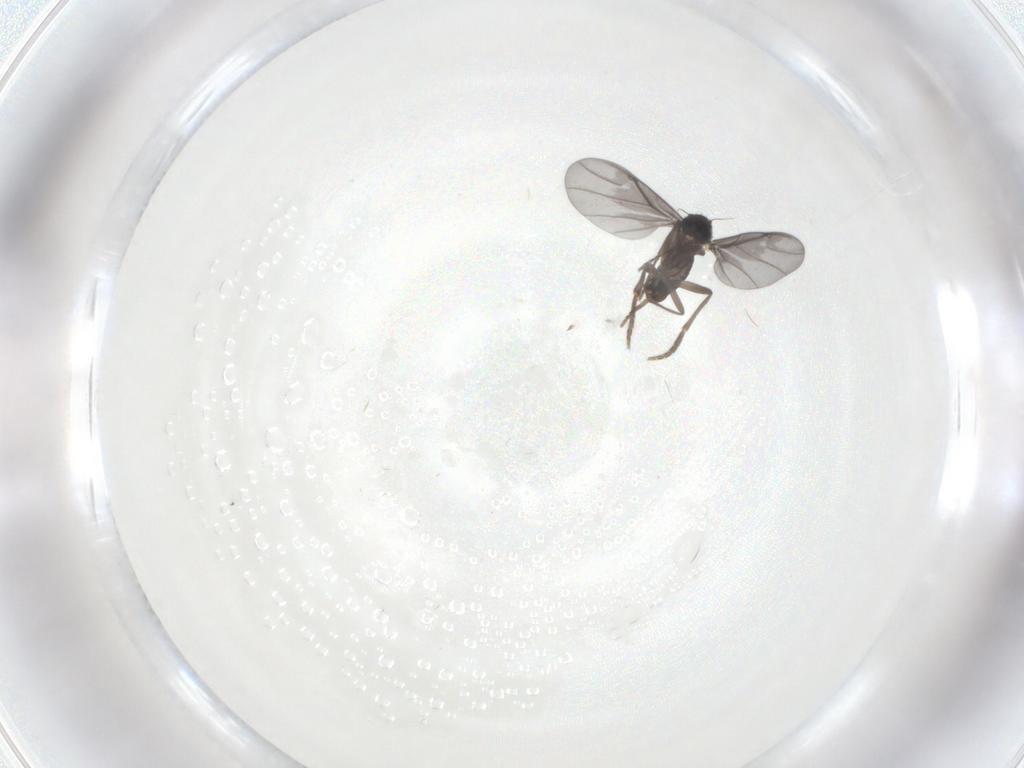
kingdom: Animalia
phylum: Arthropoda
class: Insecta
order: Diptera
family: Phoridae
